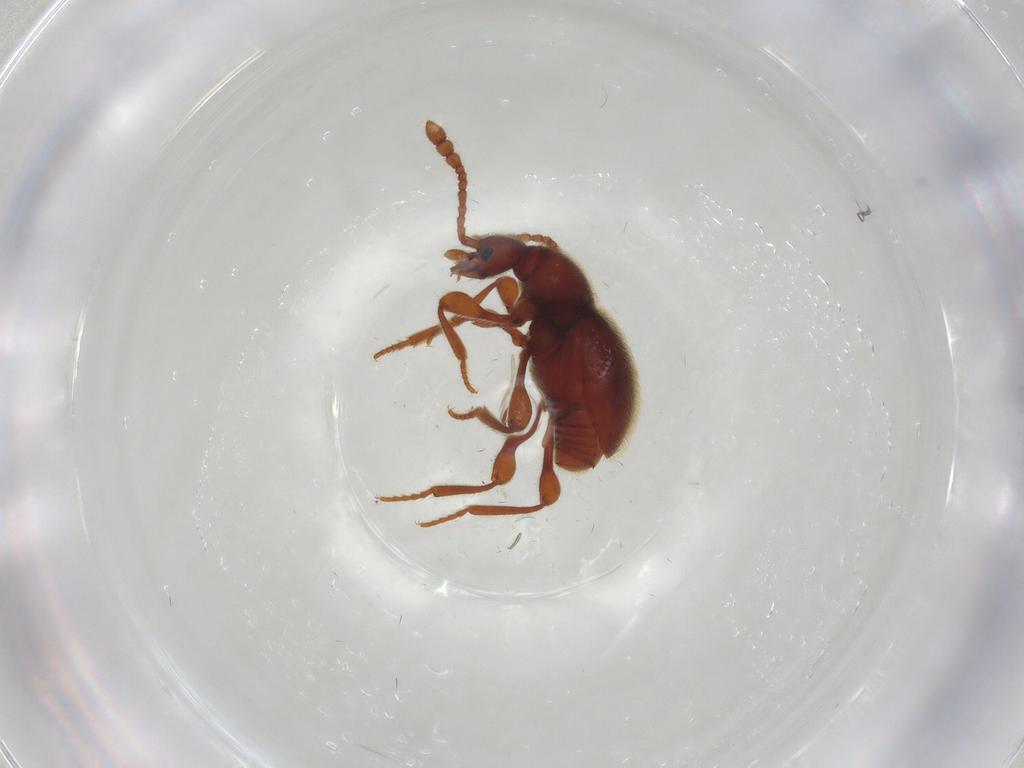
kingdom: Animalia
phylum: Arthropoda
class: Insecta
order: Coleoptera
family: Staphylinidae
